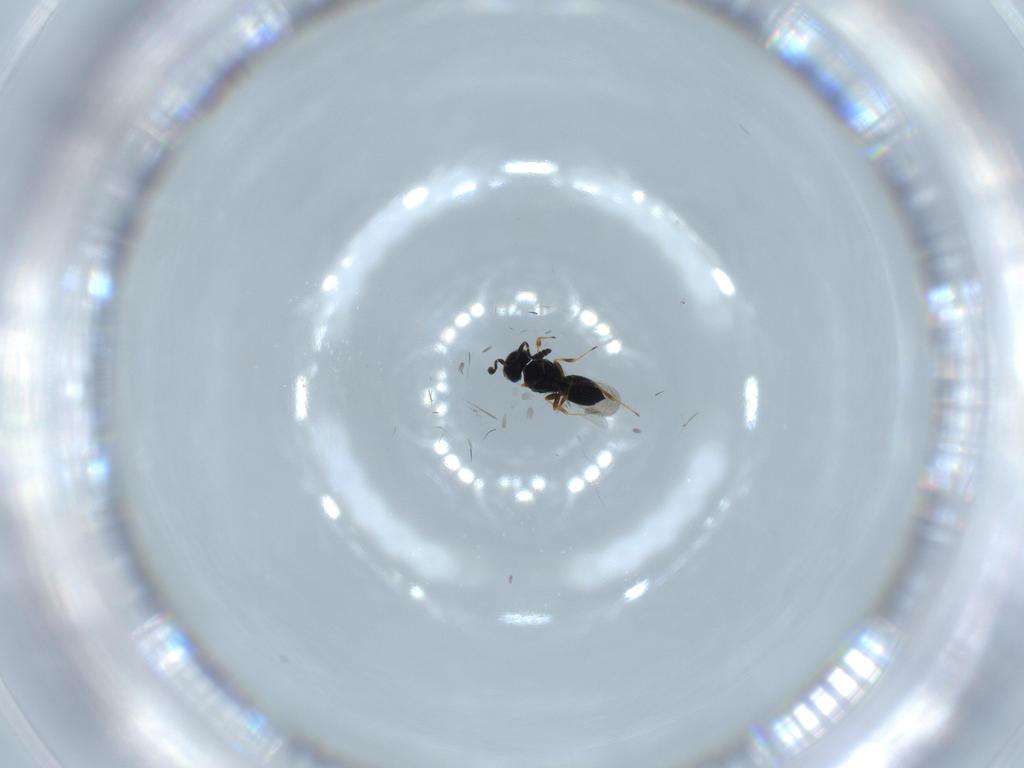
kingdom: Animalia
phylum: Arthropoda
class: Insecta
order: Hymenoptera
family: Scelionidae
